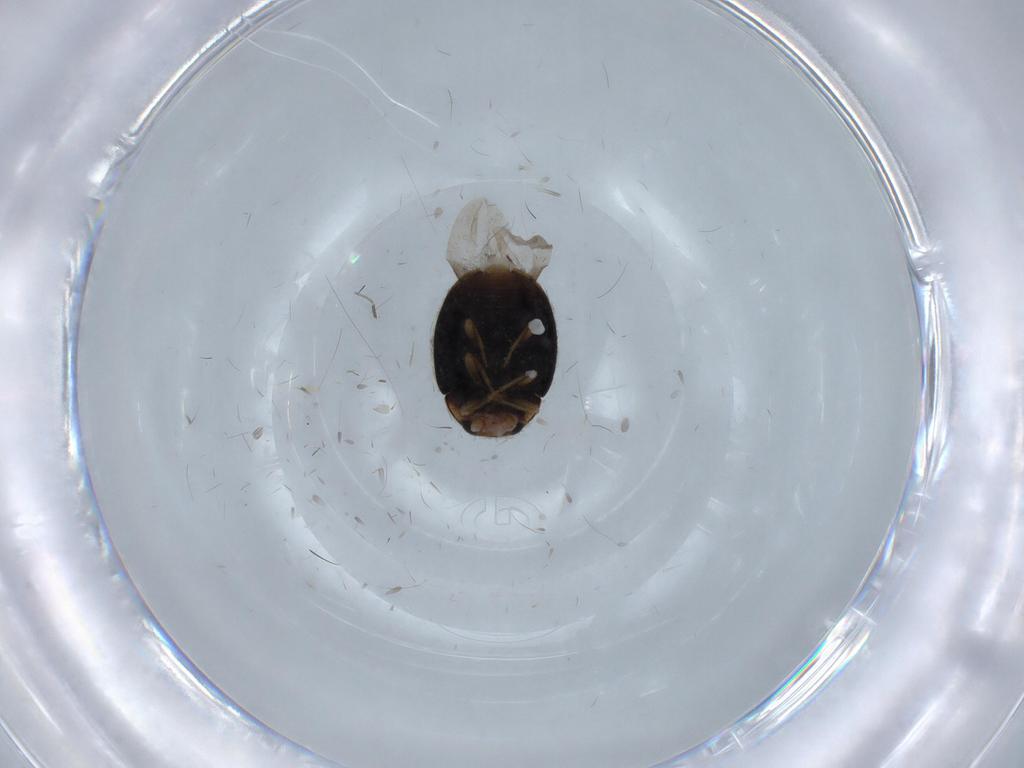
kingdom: Animalia
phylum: Arthropoda
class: Insecta
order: Coleoptera
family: Coccinellidae
